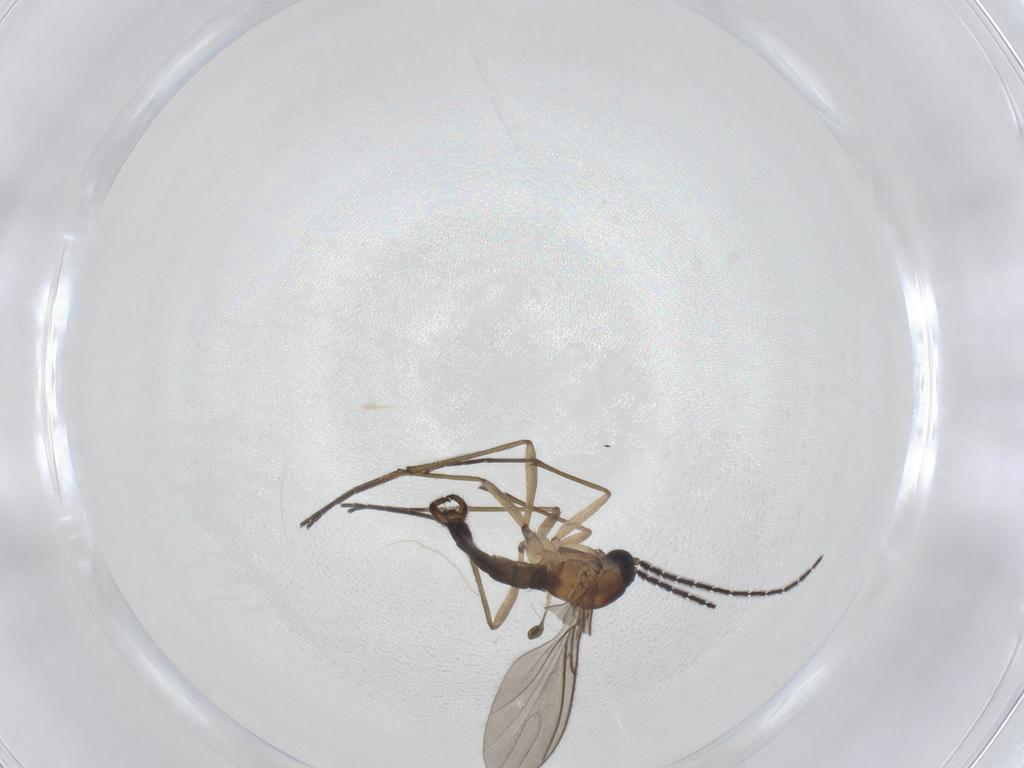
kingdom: Animalia
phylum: Arthropoda
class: Insecta
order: Diptera
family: Sciaridae
